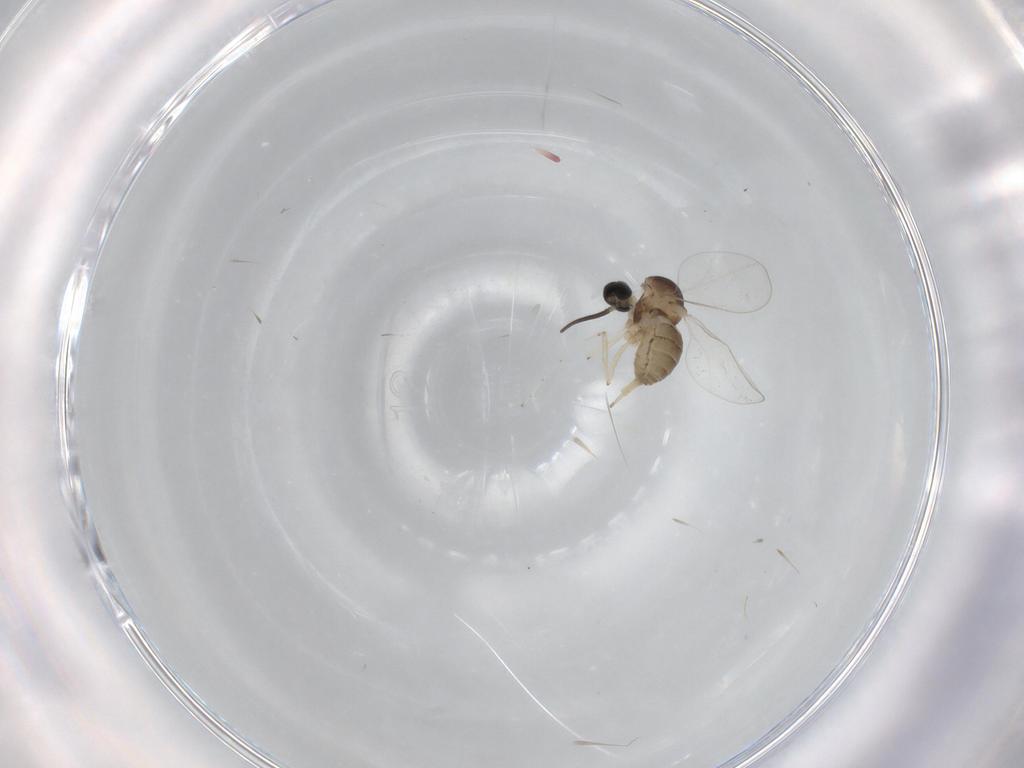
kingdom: Animalia
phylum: Arthropoda
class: Insecta
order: Diptera
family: Cecidomyiidae
